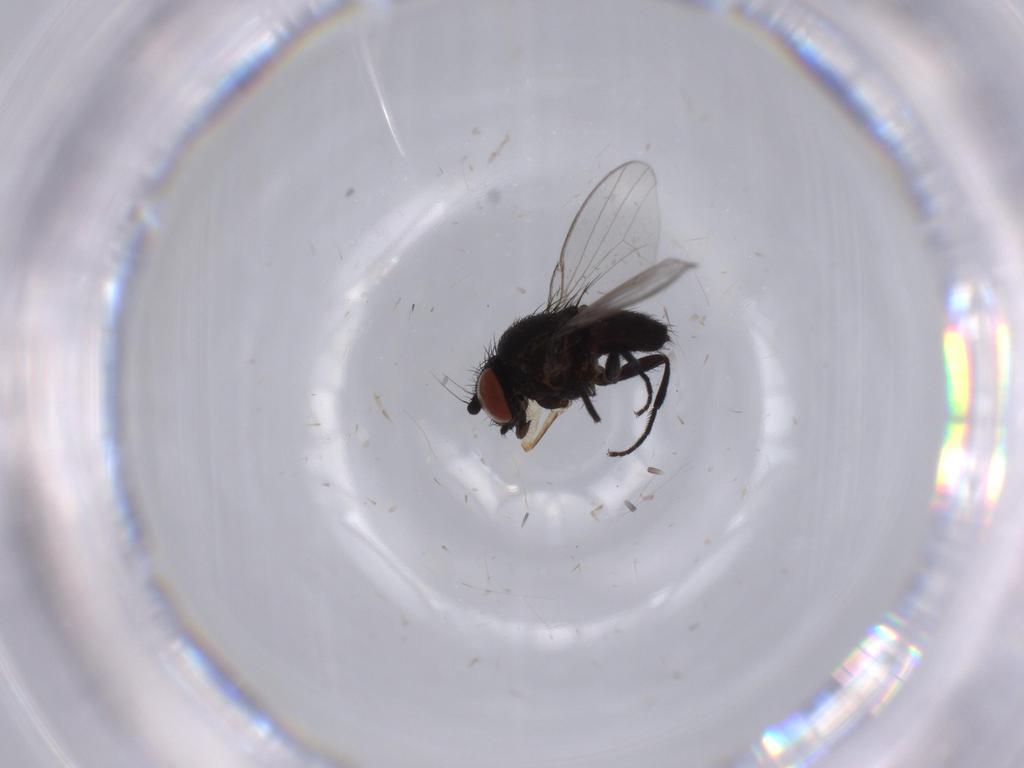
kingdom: Animalia
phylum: Arthropoda
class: Insecta
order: Diptera
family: Milichiidae
